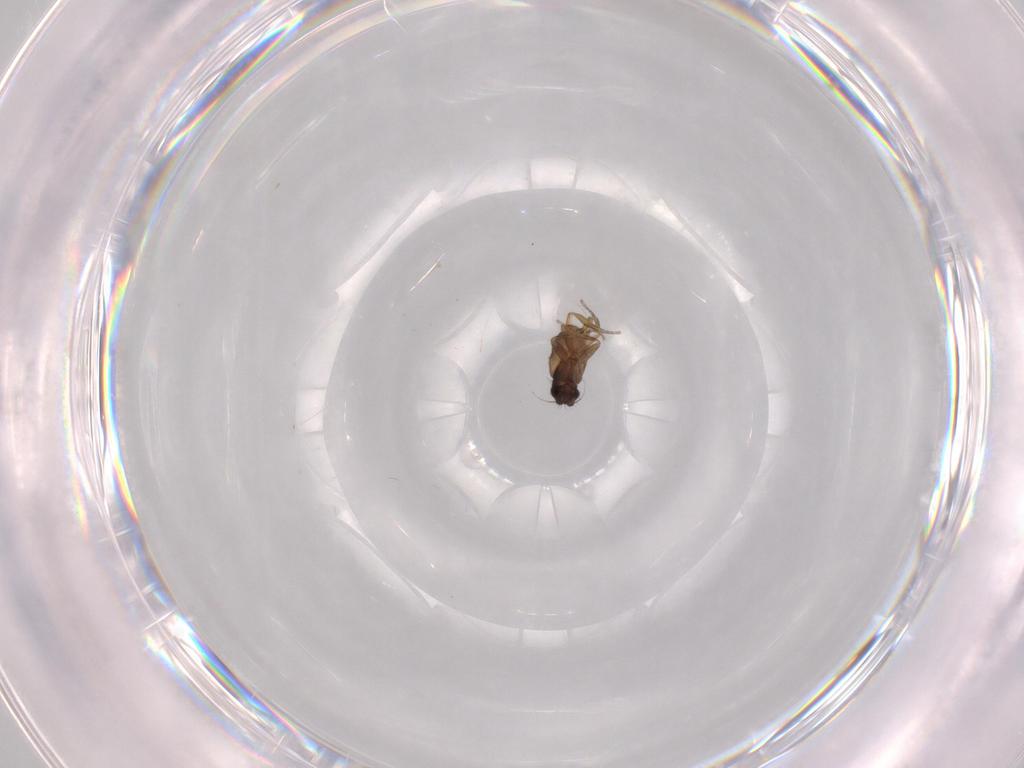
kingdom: Animalia
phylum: Arthropoda
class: Insecta
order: Diptera
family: Phoridae
